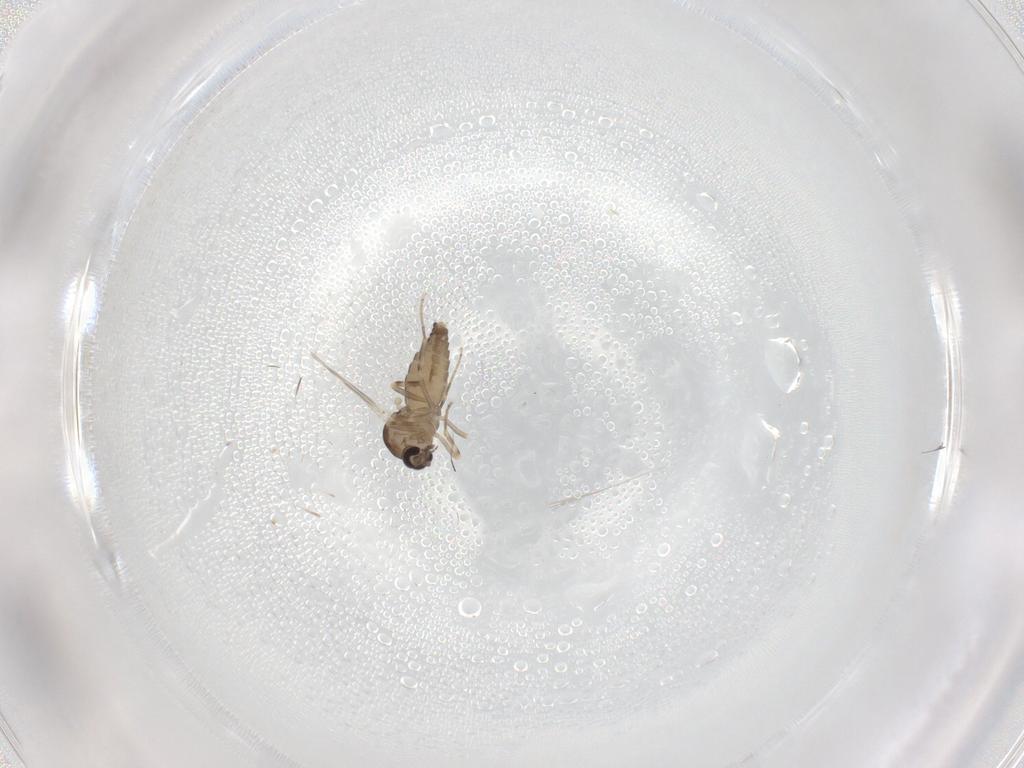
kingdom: Animalia
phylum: Arthropoda
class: Insecta
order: Diptera
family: Ceratopogonidae
